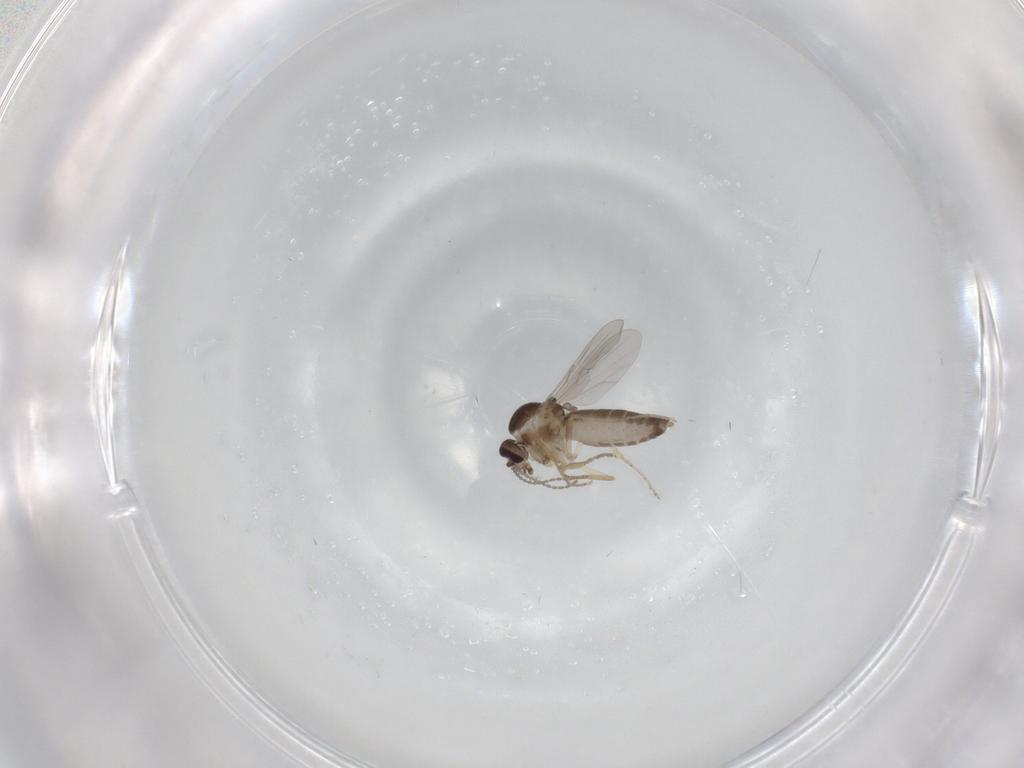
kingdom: Animalia
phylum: Arthropoda
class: Insecta
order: Diptera
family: Ceratopogonidae
